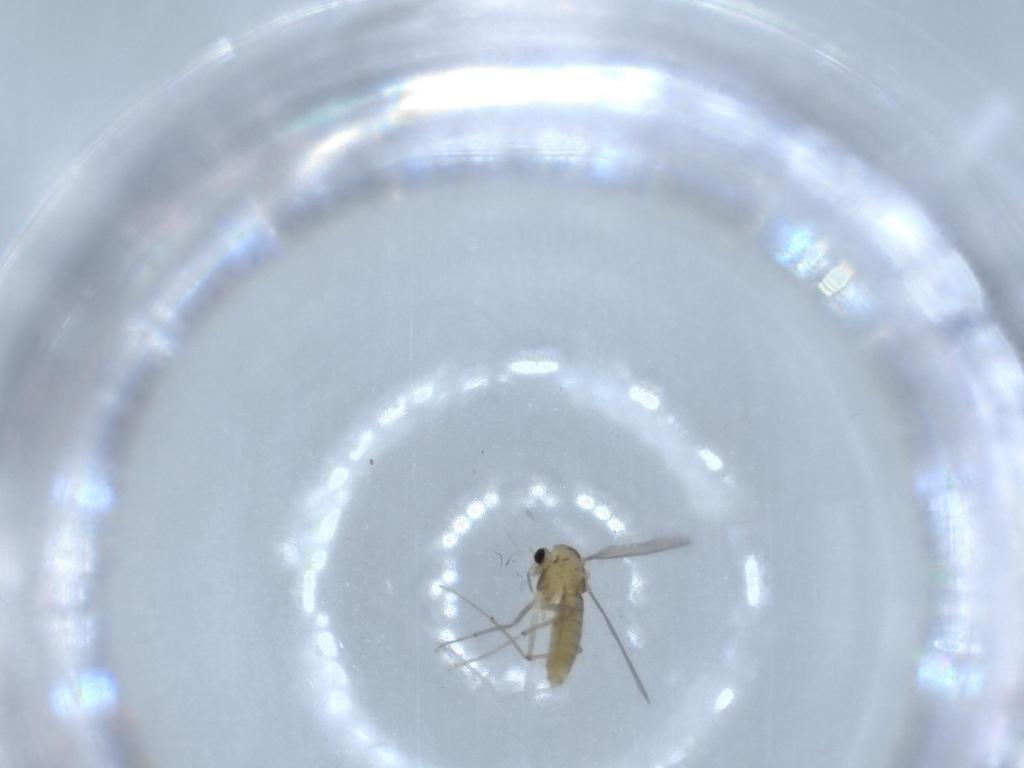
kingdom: Animalia
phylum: Arthropoda
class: Insecta
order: Diptera
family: Chironomidae
